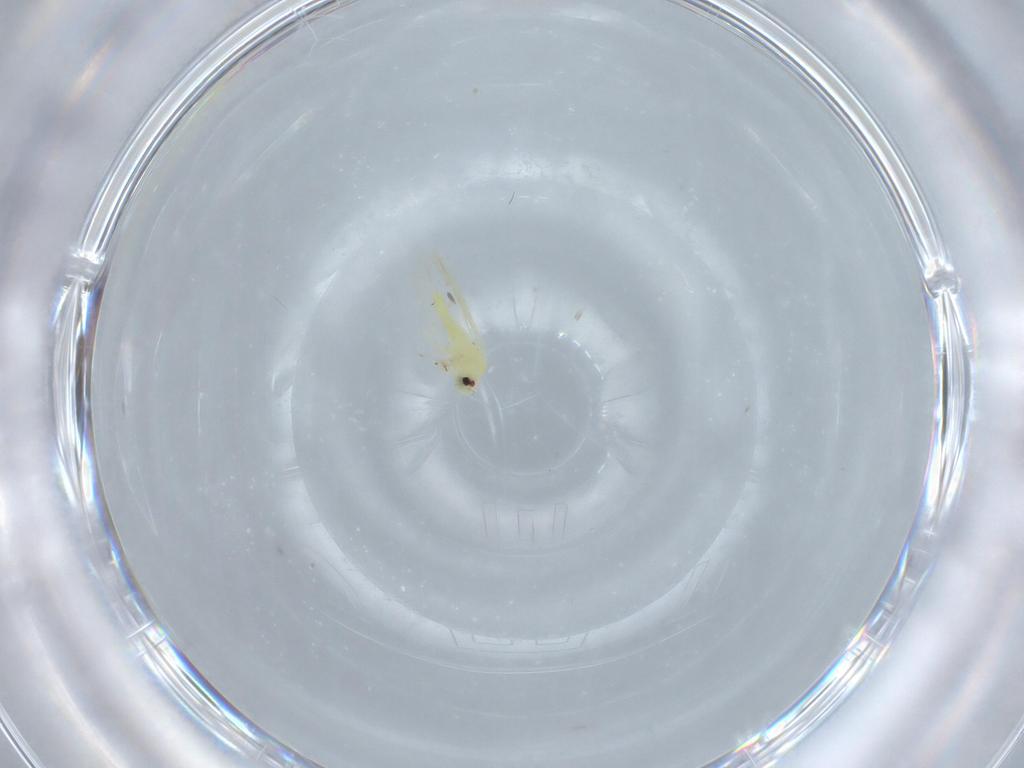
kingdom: Animalia
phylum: Arthropoda
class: Insecta
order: Hemiptera
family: Aleyrodidae
